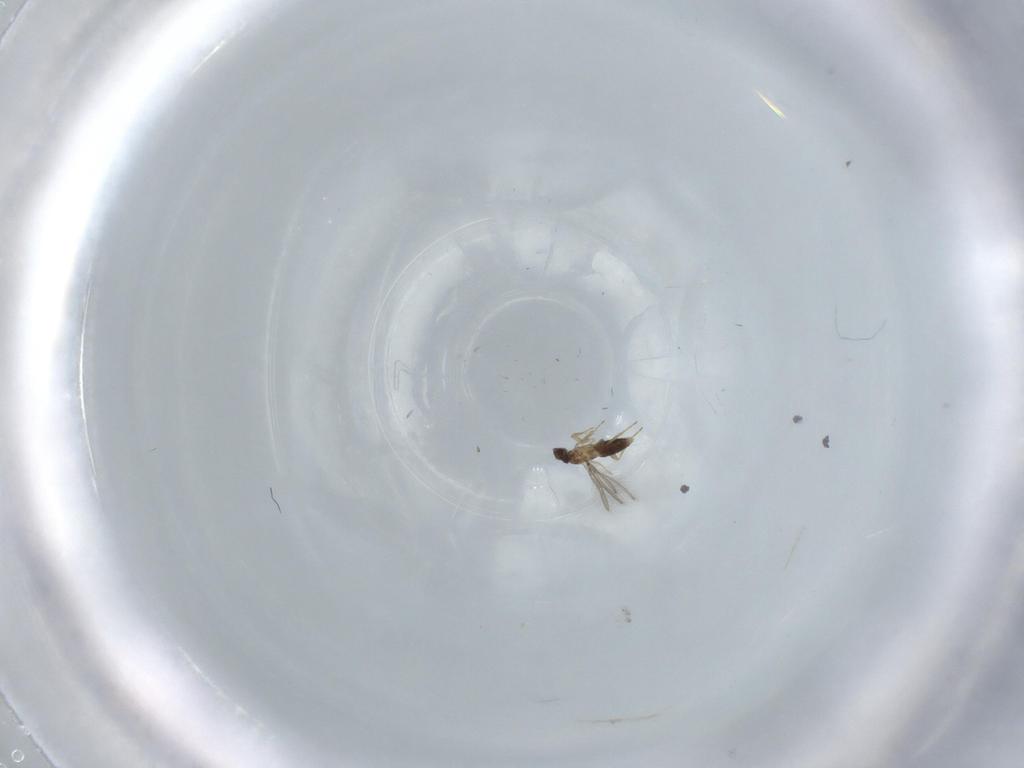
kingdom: Animalia
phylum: Arthropoda
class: Insecta
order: Hymenoptera
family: Mymaridae
